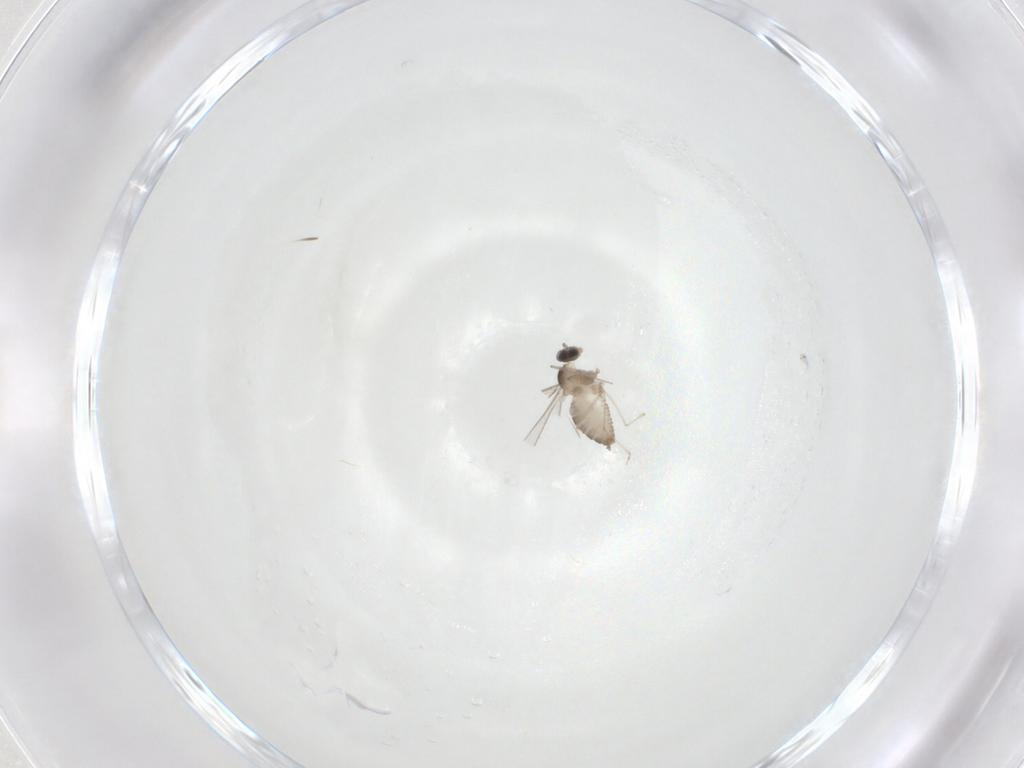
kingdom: Animalia
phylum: Arthropoda
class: Insecta
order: Diptera
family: Cecidomyiidae
